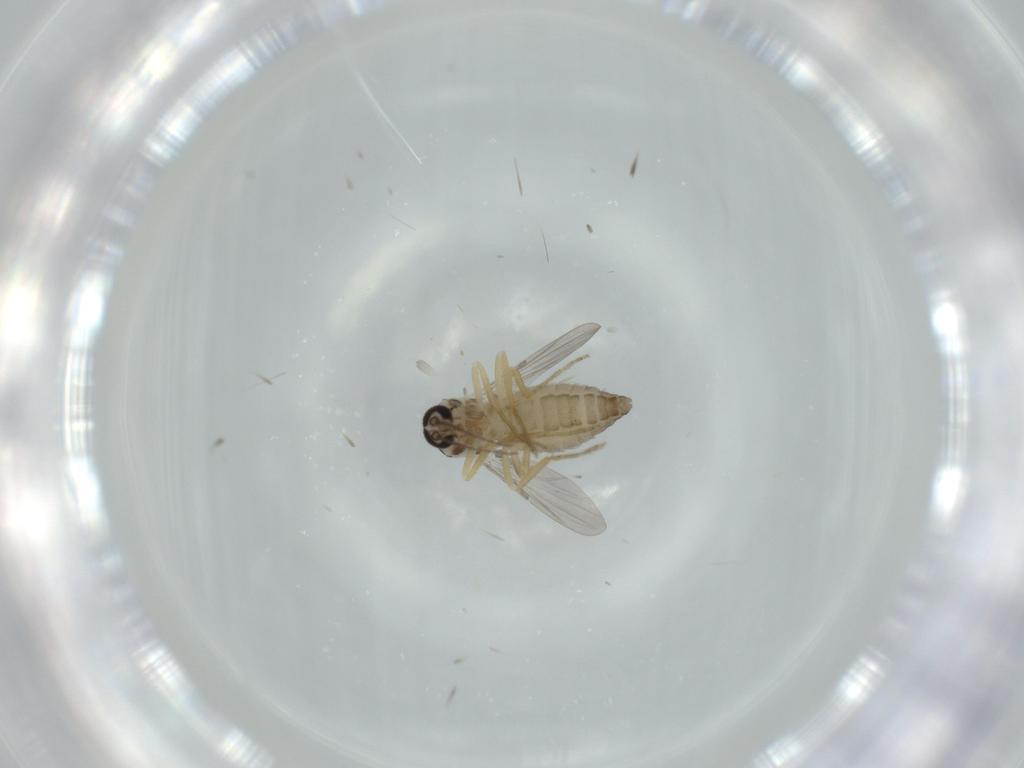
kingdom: Animalia
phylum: Arthropoda
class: Insecta
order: Diptera
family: Ceratopogonidae
